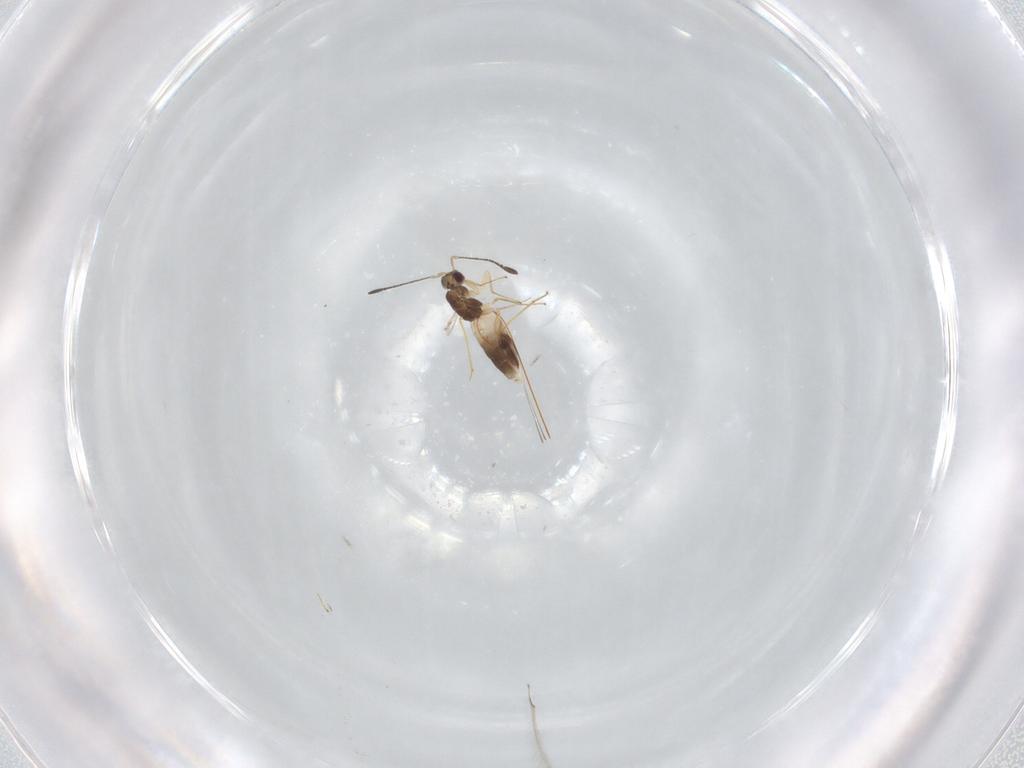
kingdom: Animalia
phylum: Arthropoda
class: Insecta
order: Hymenoptera
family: Mymaridae
